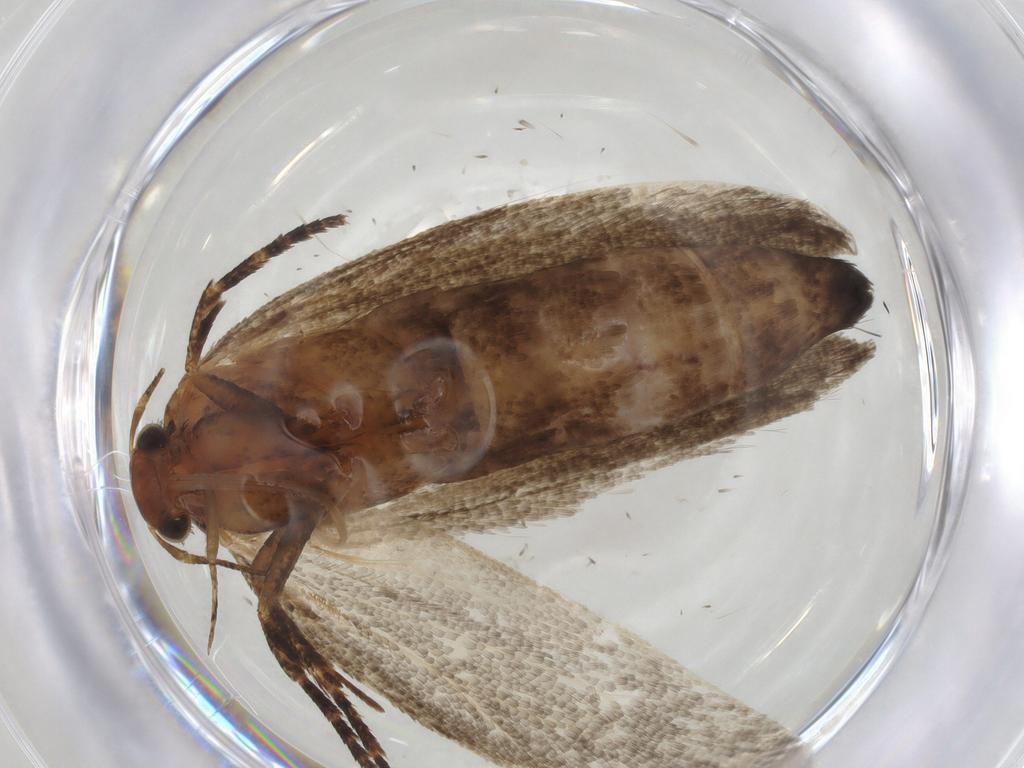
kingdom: Animalia
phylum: Arthropoda
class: Insecta
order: Lepidoptera
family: Gelechiidae
